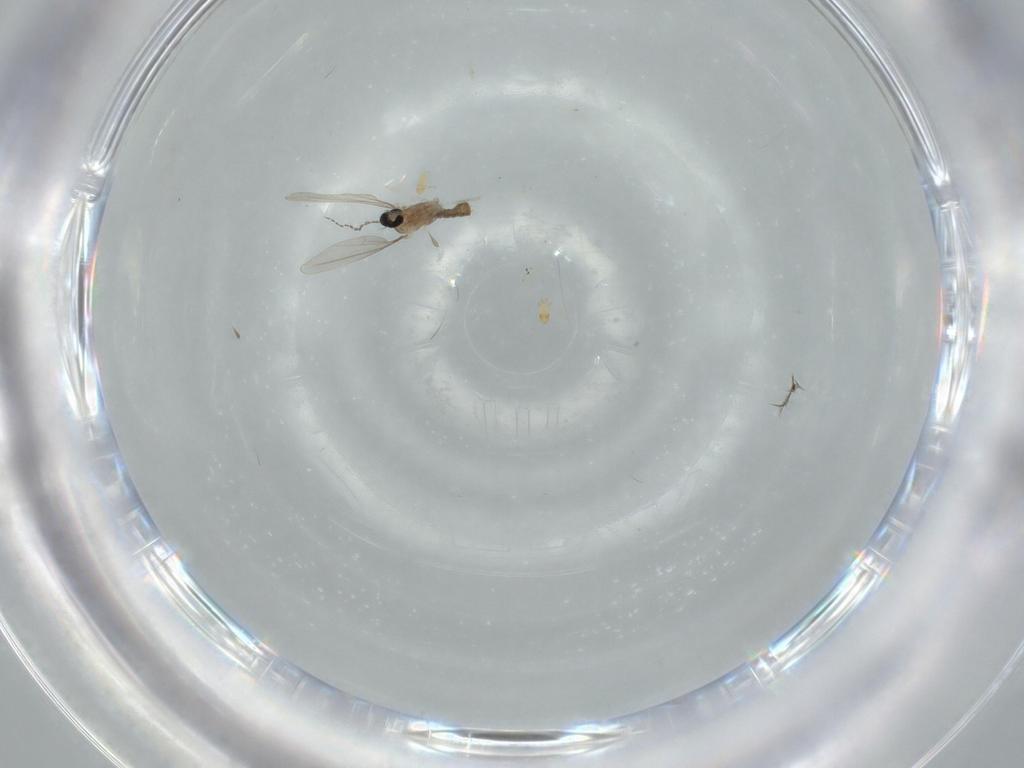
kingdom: Animalia
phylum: Arthropoda
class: Insecta
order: Diptera
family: Cecidomyiidae
